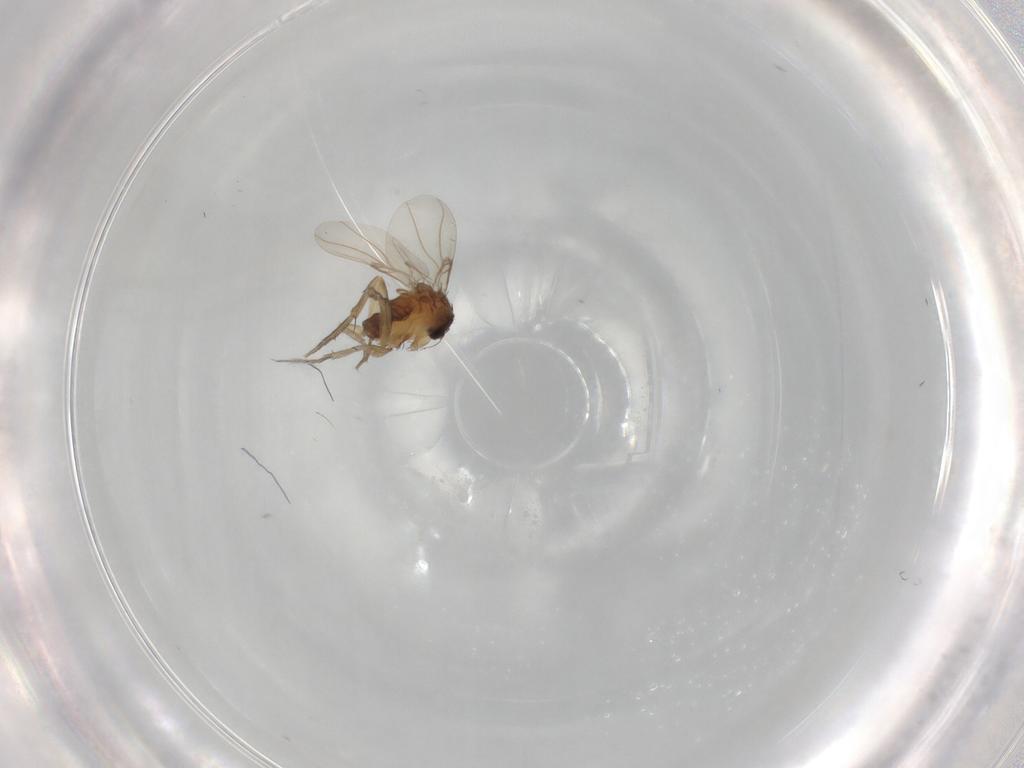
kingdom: Animalia
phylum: Arthropoda
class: Insecta
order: Diptera
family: Phoridae
